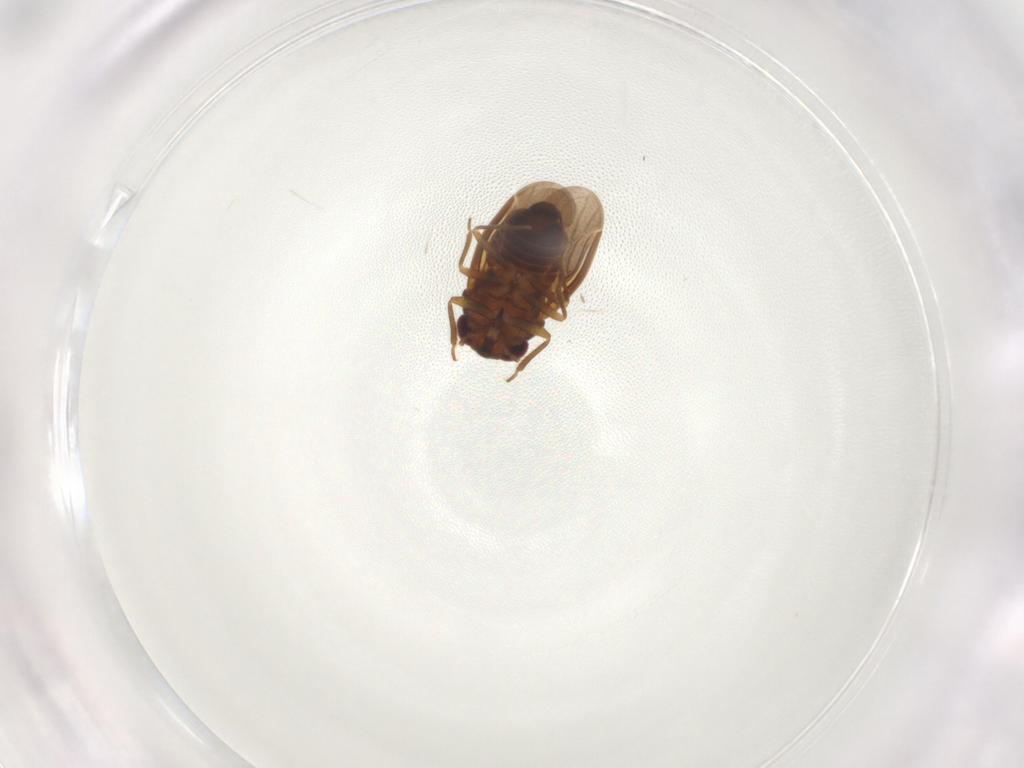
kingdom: Animalia
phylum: Arthropoda
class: Insecta
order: Hemiptera
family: Schizopteridae
